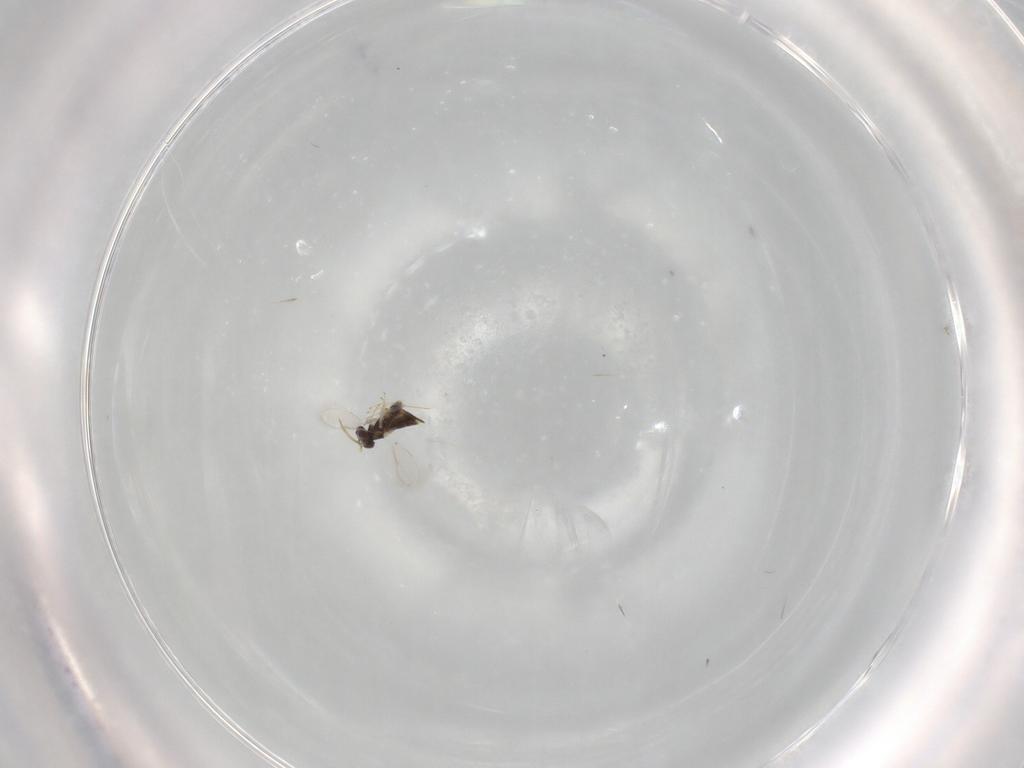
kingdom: Animalia
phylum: Arthropoda
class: Insecta
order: Hymenoptera
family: Aphelinidae
